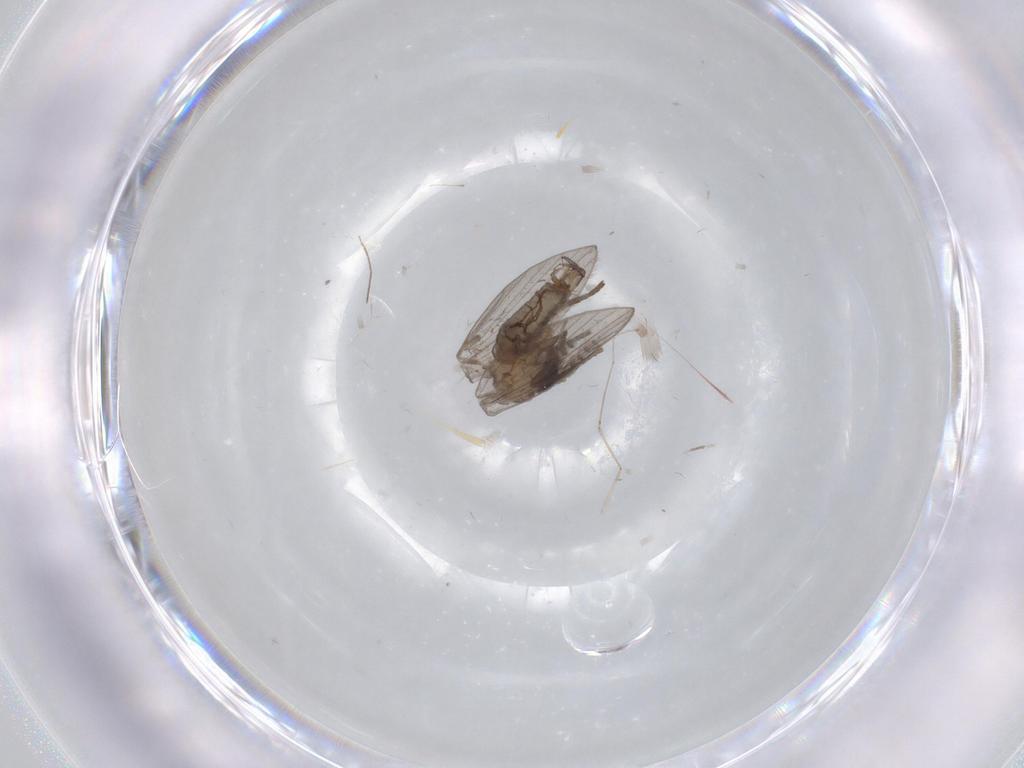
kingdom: Animalia
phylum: Arthropoda
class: Insecta
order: Diptera
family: Psychodidae
